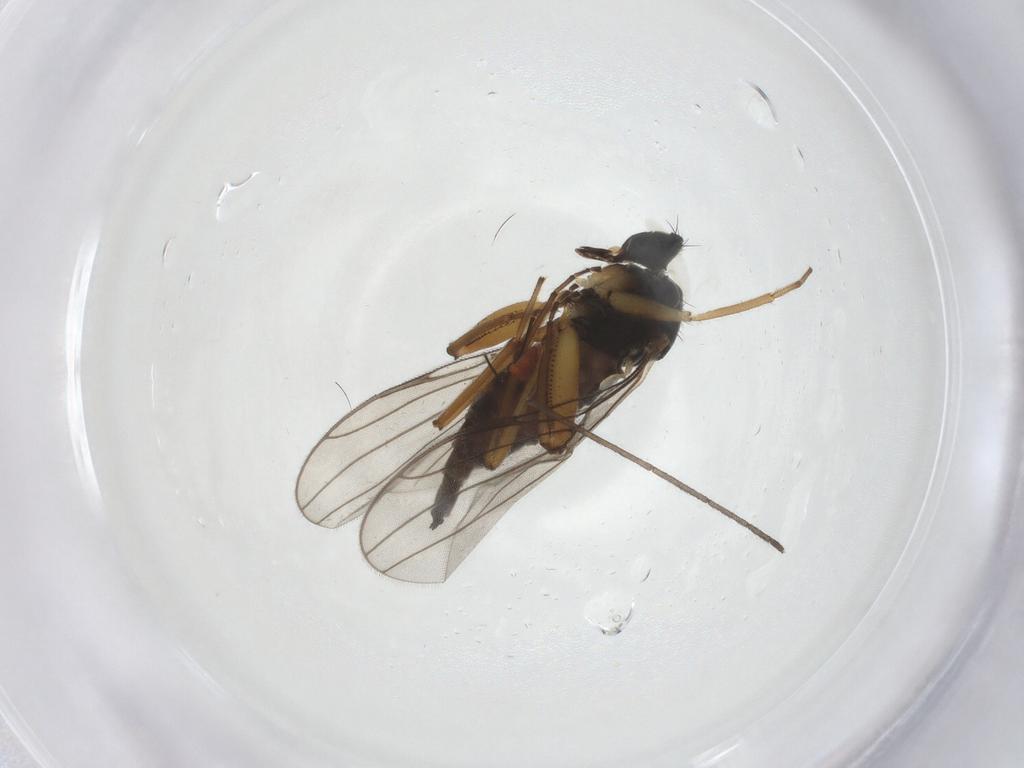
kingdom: Animalia
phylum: Arthropoda
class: Insecta
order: Diptera
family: Hybotidae
